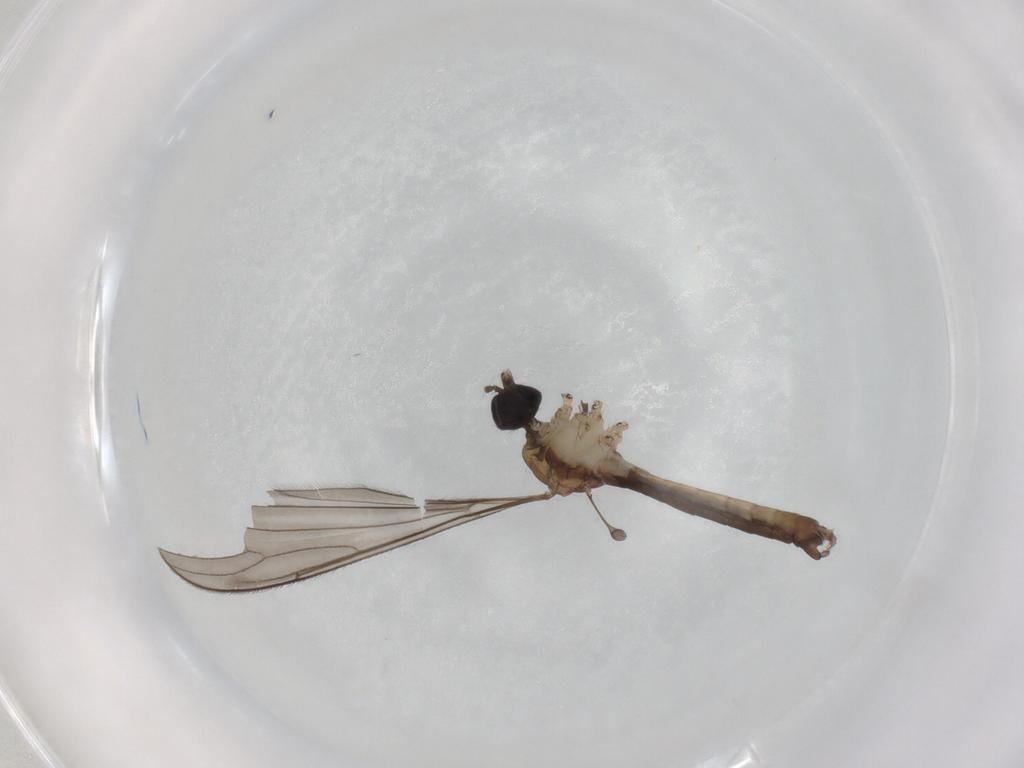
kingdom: Animalia
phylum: Arthropoda
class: Insecta
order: Diptera
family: Limoniidae
